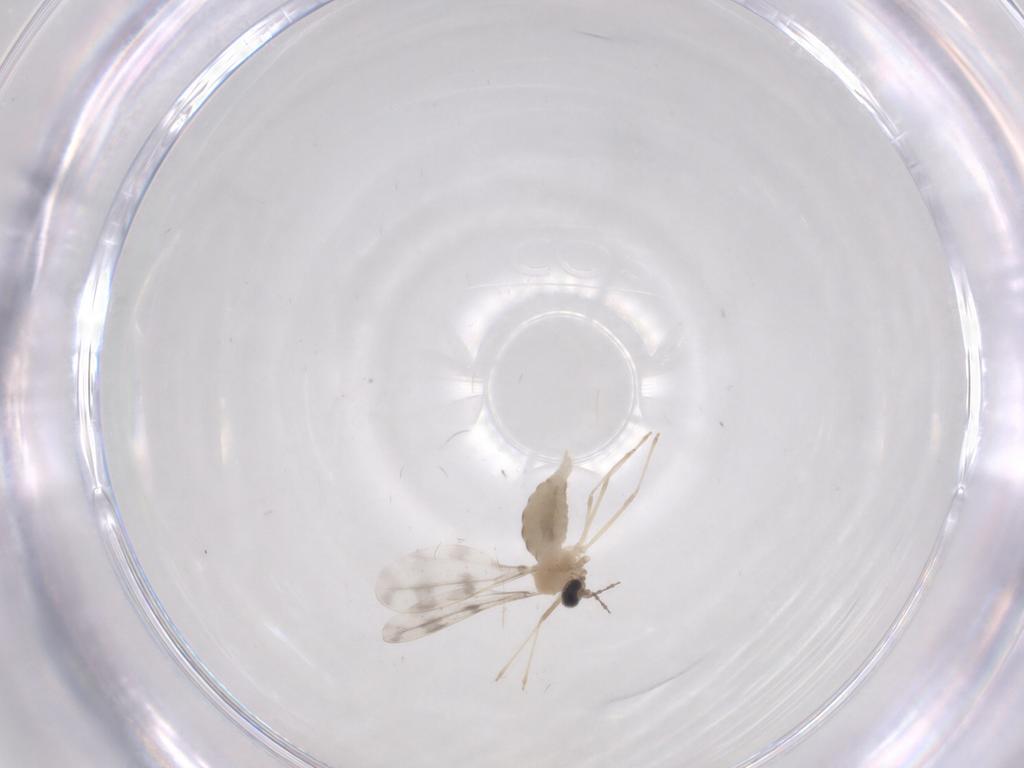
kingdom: Animalia
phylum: Arthropoda
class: Insecta
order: Diptera
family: Cecidomyiidae
